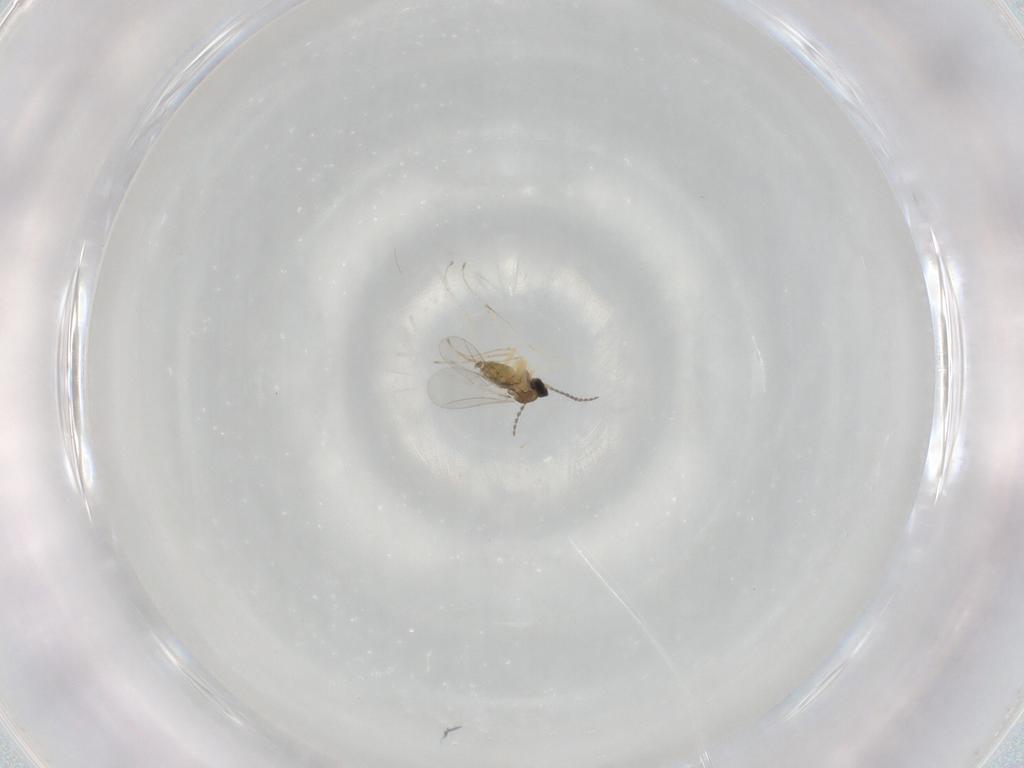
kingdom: Animalia
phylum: Arthropoda
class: Insecta
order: Diptera
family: Cecidomyiidae
